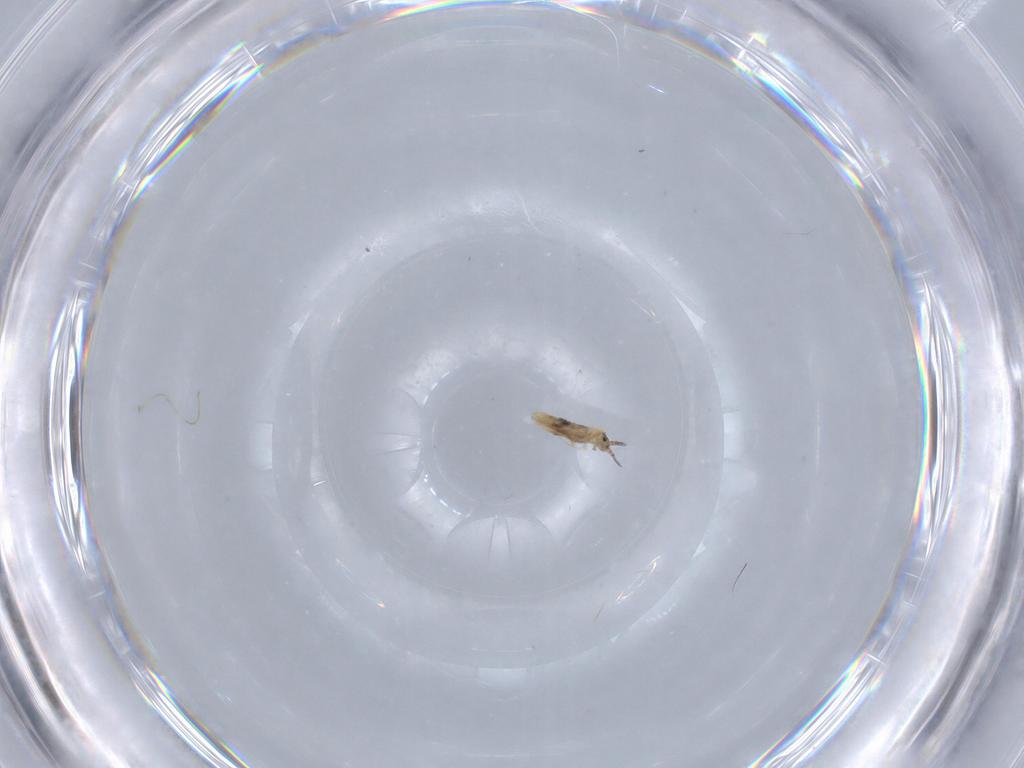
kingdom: Animalia
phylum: Arthropoda
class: Collembola
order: Entomobryomorpha
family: Entomobryidae
